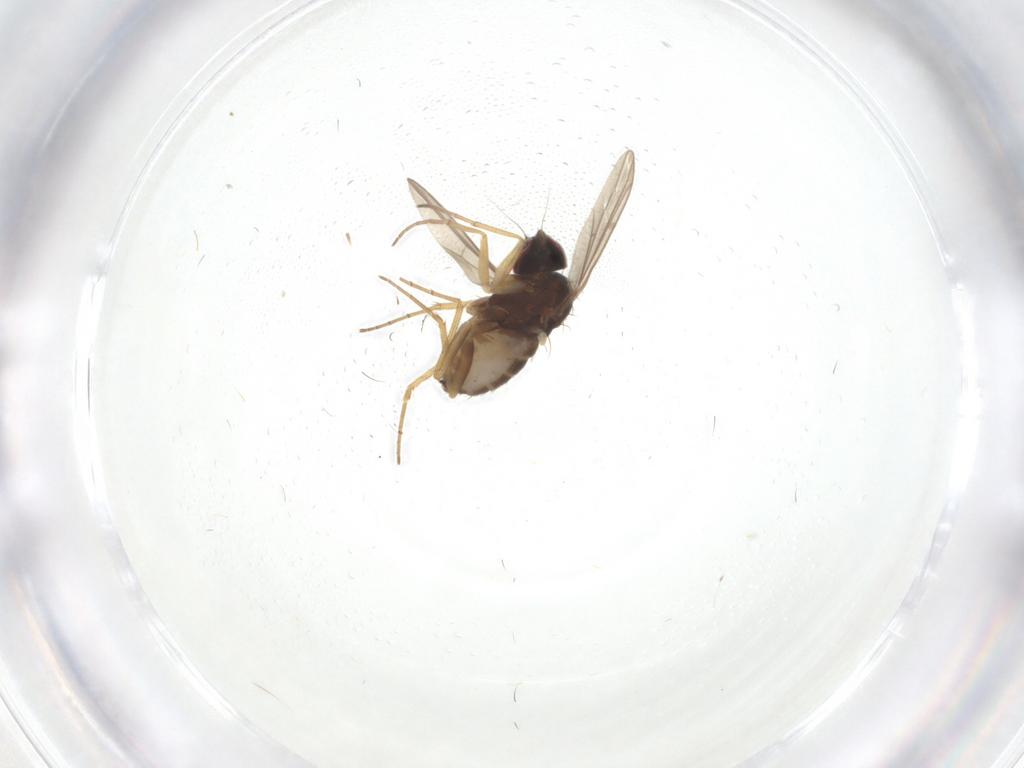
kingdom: Animalia
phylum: Arthropoda
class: Insecta
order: Diptera
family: Dolichopodidae
